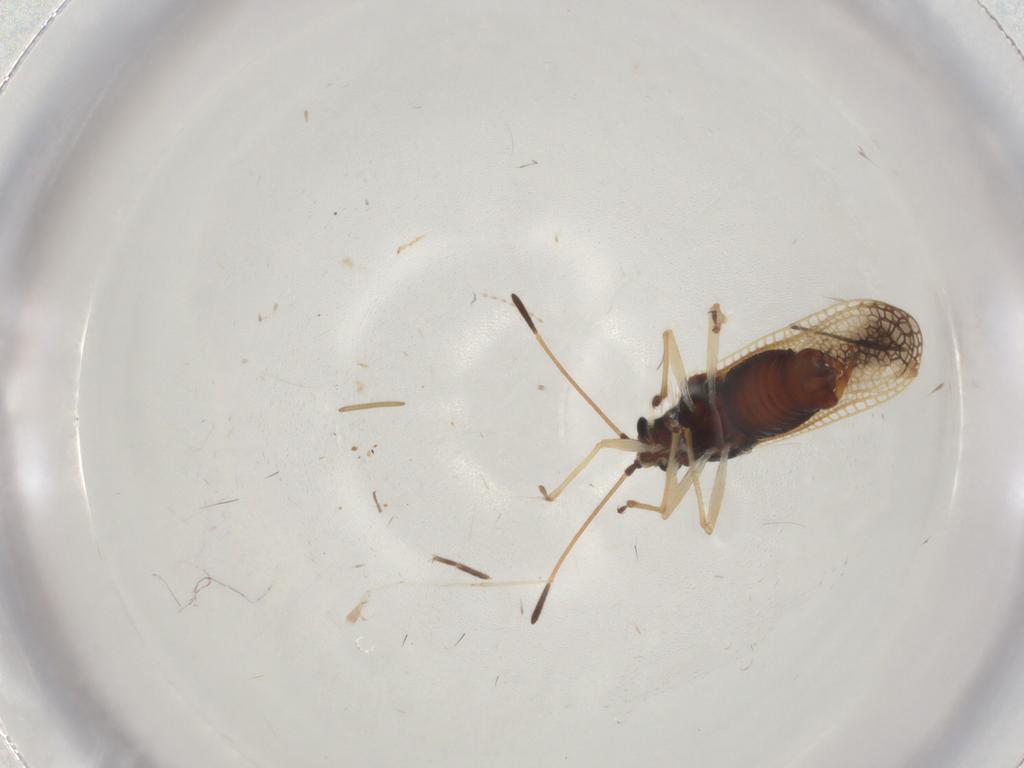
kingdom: Animalia
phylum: Arthropoda
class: Insecta
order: Hemiptera
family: Tingidae
